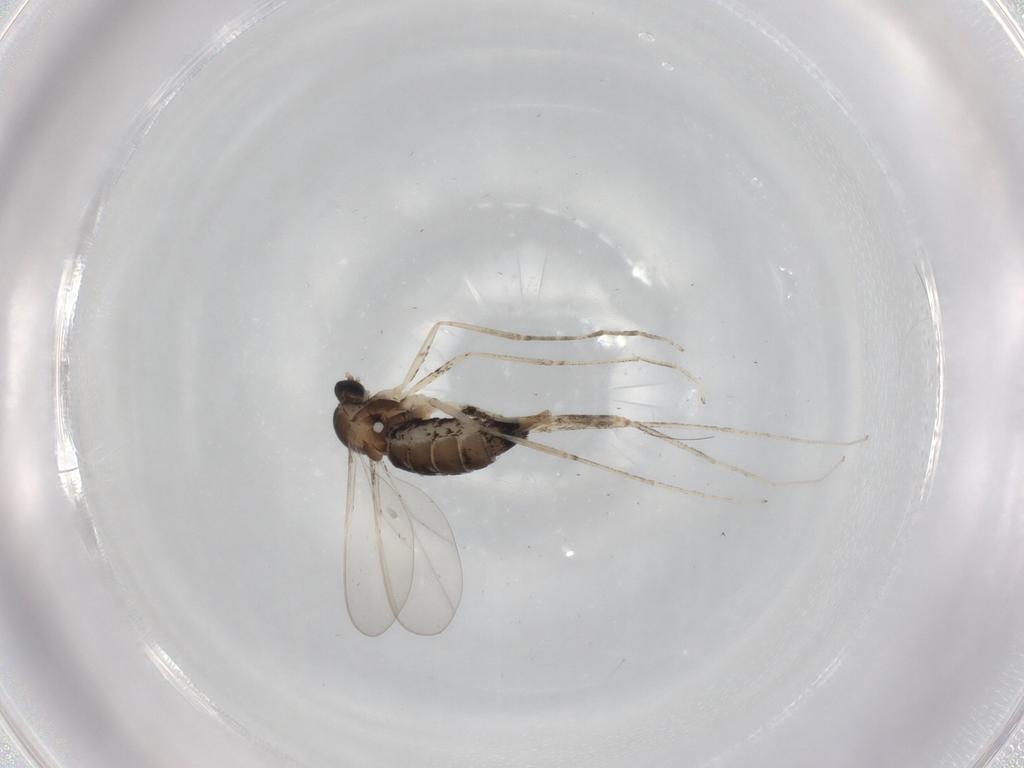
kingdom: Animalia
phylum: Arthropoda
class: Insecta
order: Diptera
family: Cecidomyiidae
